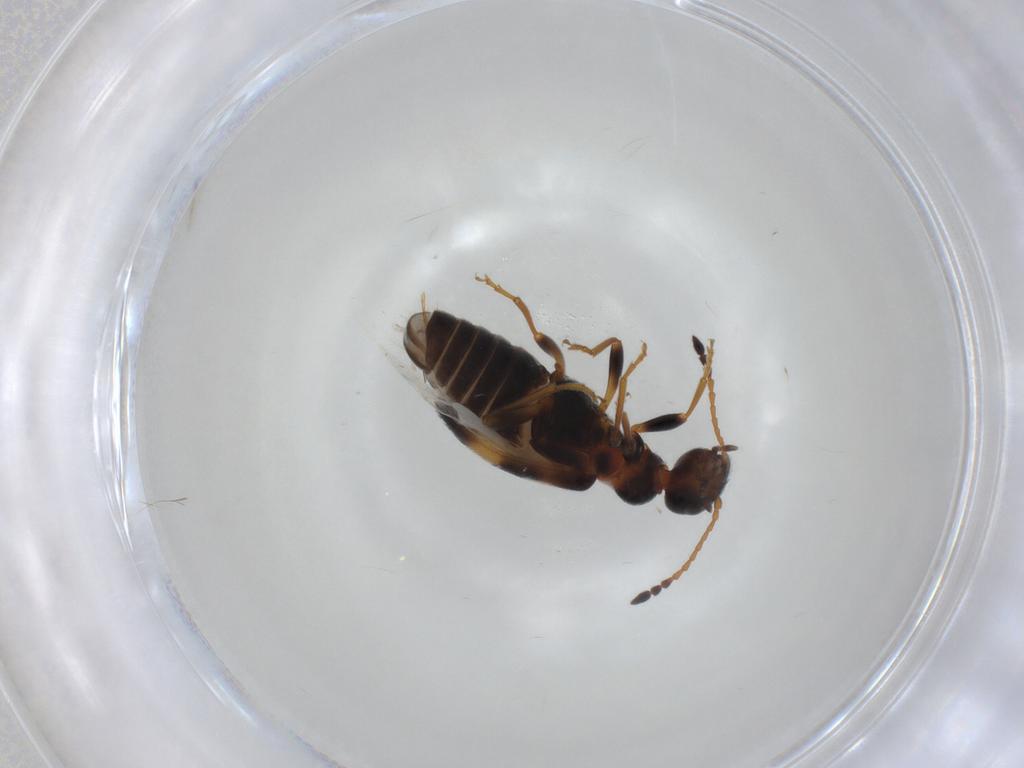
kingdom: Animalia
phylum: Arthropoda
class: Insecta
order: Coleoptera
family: Anthicidae
